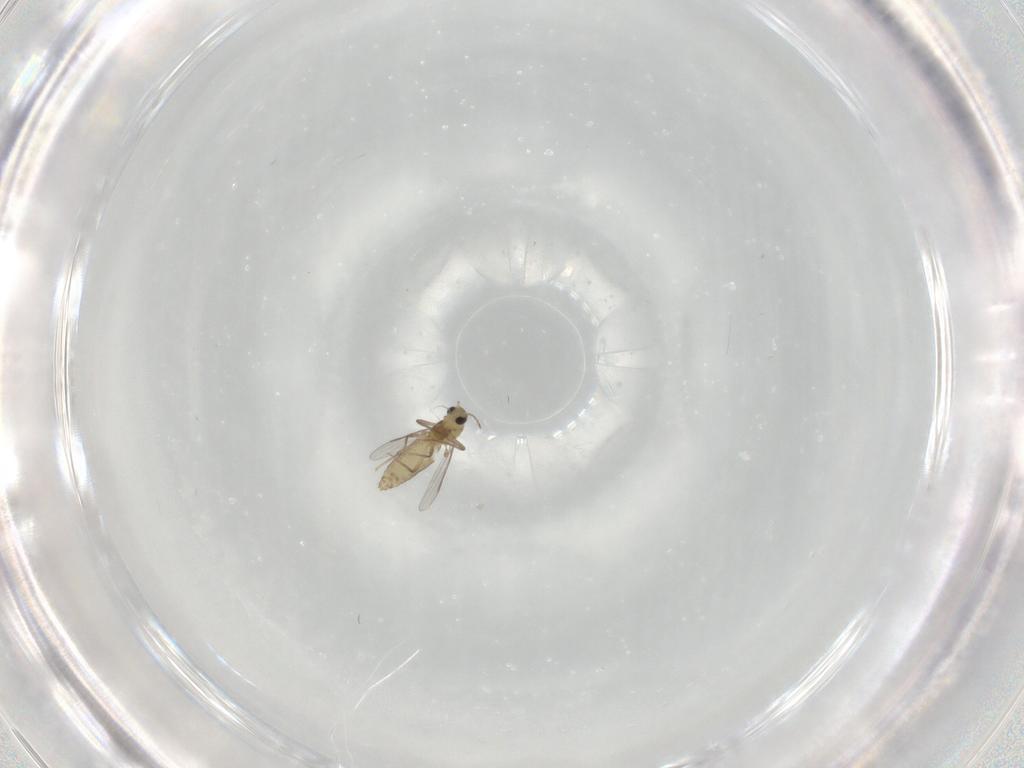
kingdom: Animalia
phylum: Arthropoda
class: Insecta
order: Diptera
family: Chironomidae
